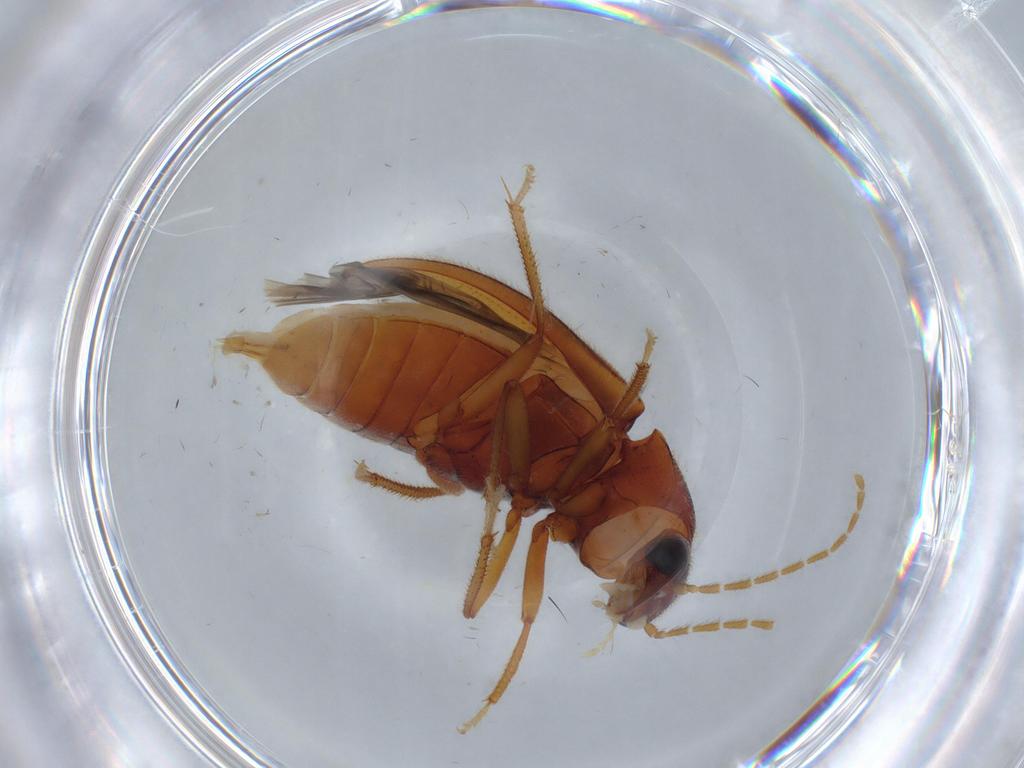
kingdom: Animalia
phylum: Arthropoda
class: Insecta
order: Coleoptera
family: Ptilodactylidae
